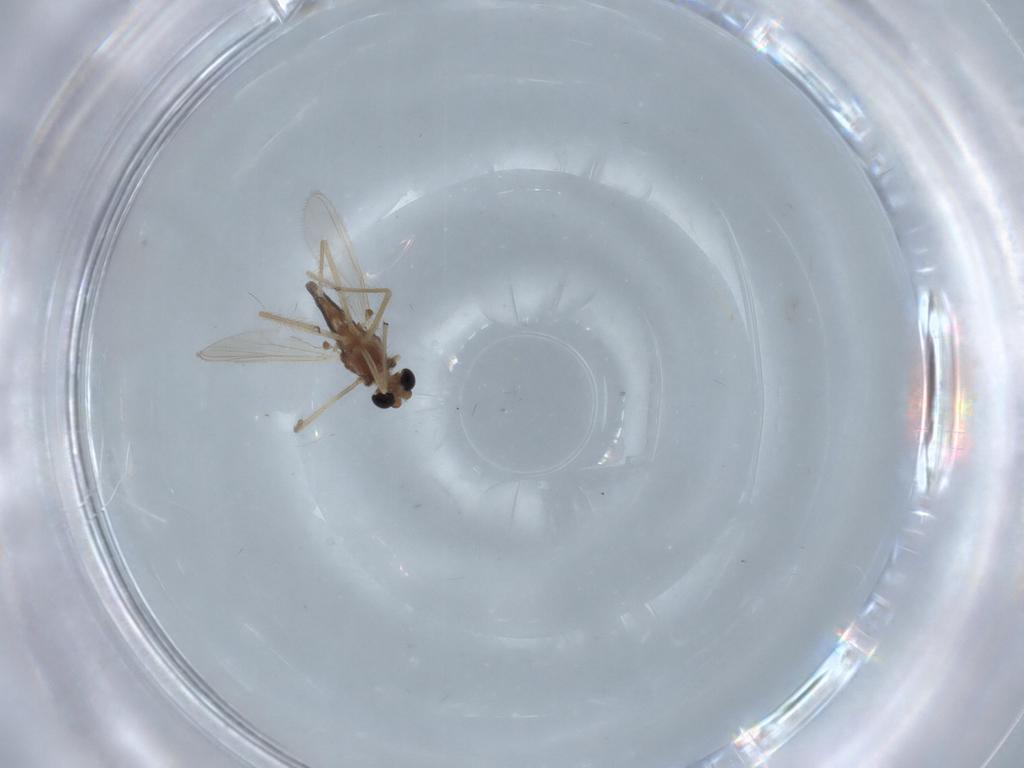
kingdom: Animalia
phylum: Arthropoda
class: Insecta
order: Diptera
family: Chironomidae
